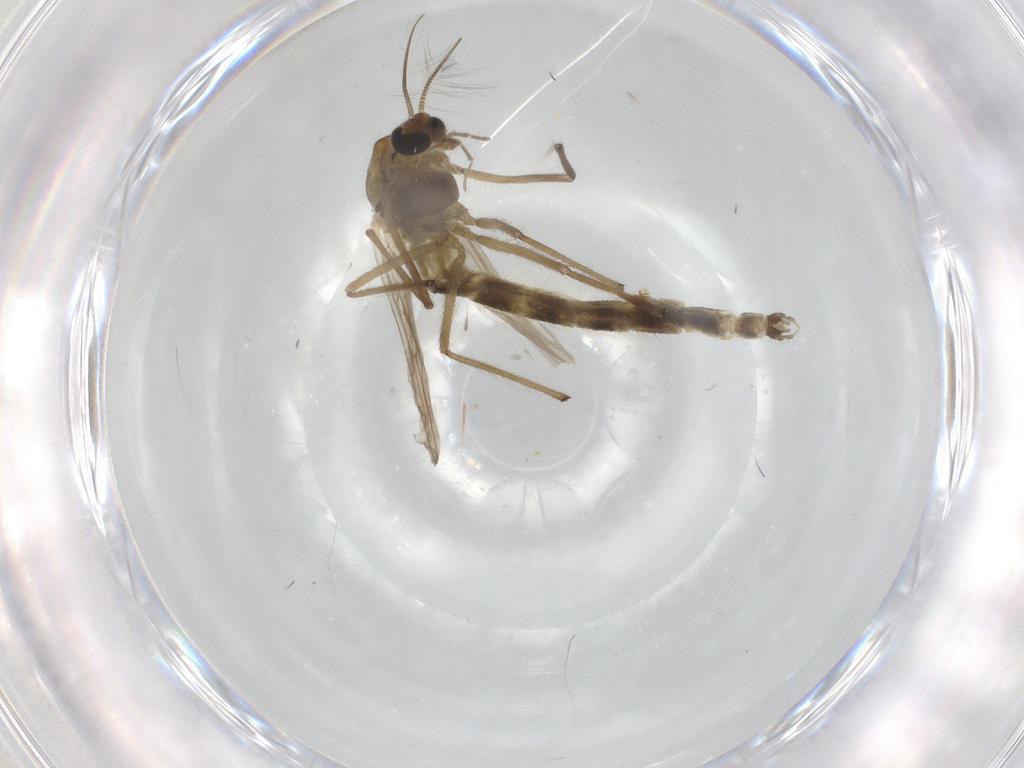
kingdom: Animalia
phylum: Arthropoda
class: Insecta
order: Diptera
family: Chironomidae
